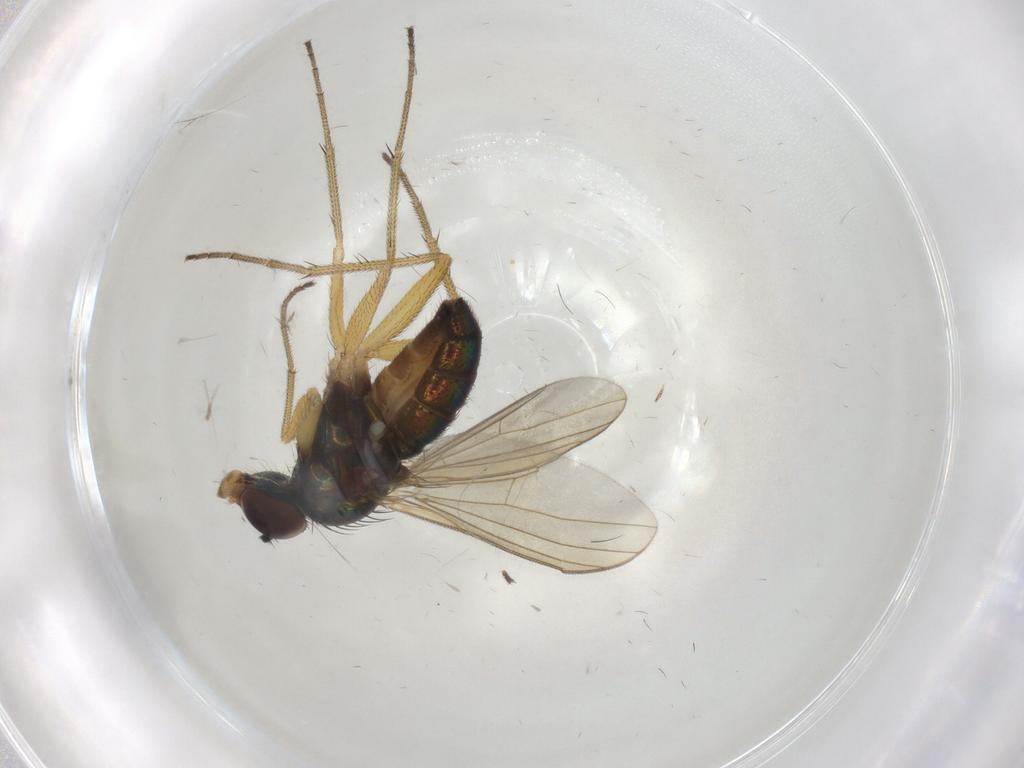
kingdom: Animalia
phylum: Arthropoda
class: Insecta
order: Diptera
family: Dolichopodidae
